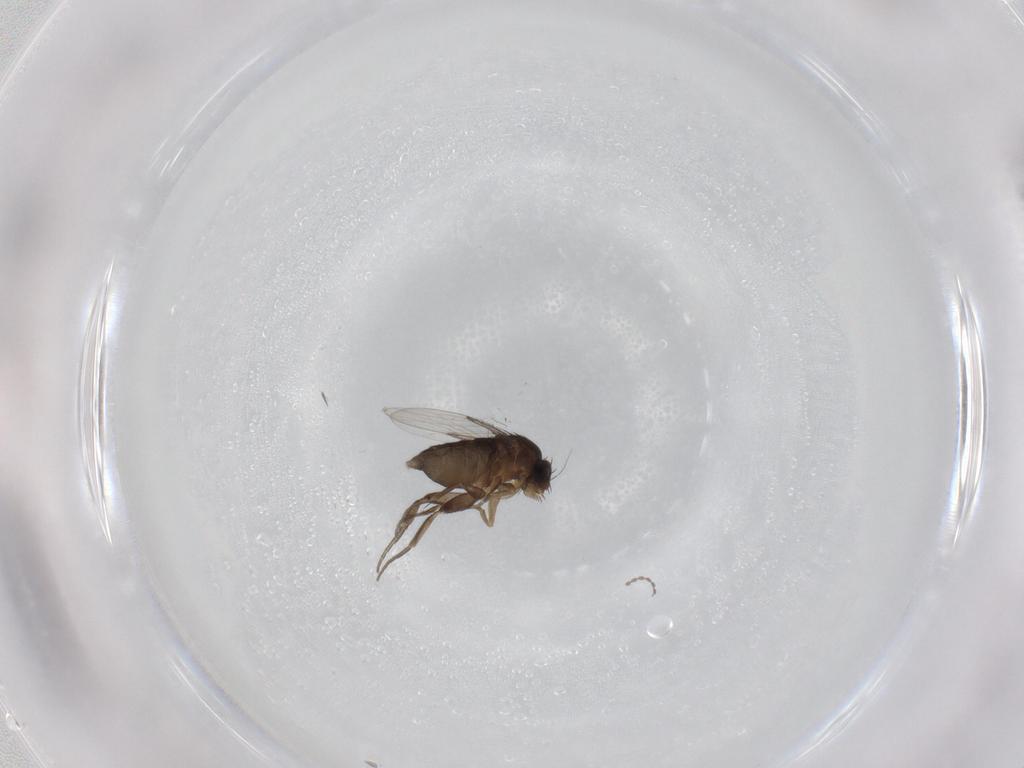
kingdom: Animalia
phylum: Arthropoda
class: Insecta
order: Diptera
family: Phoridae
